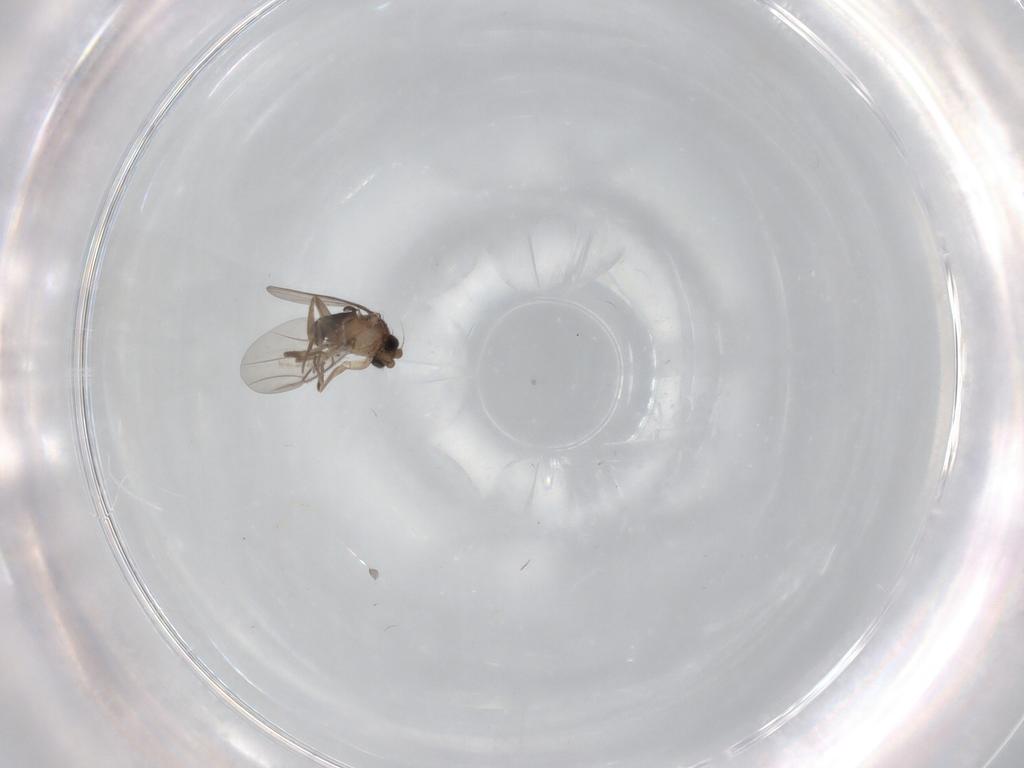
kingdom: Animalia
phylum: Arthropoda
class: Insecta
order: Diptera
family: Phoridae
